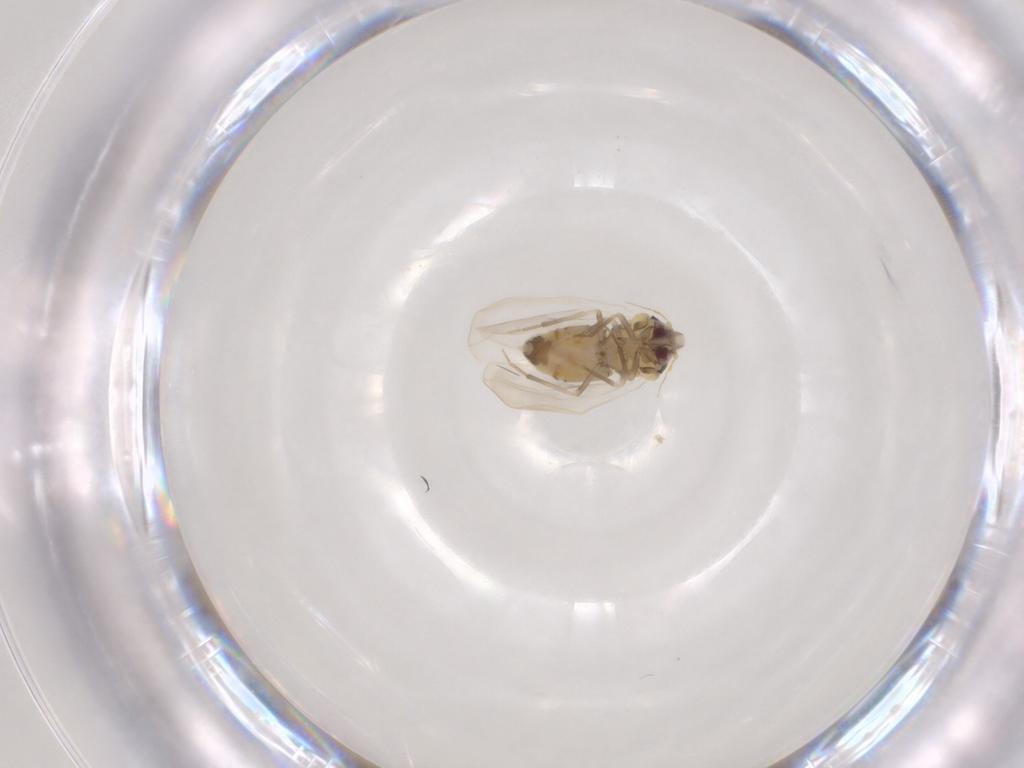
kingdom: Animalia
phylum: Arthropoda
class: Insecta
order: Hemiptera
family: Aleyrodidae
